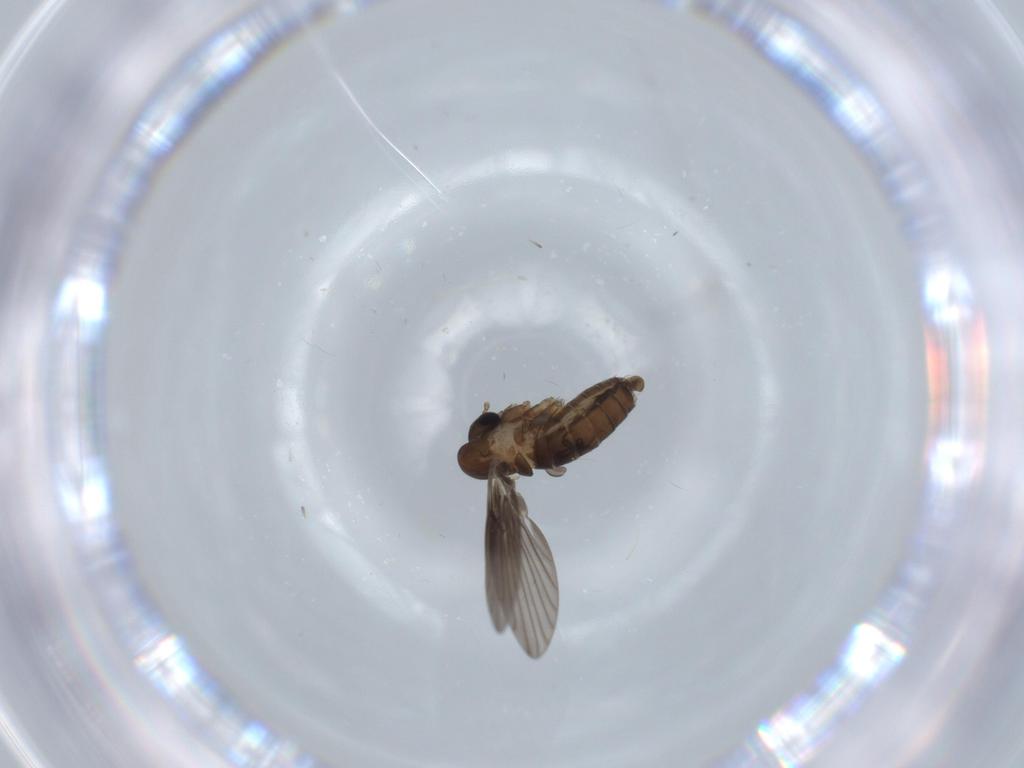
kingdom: Animalia
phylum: Arthropoda
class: Insecta
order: Diptera
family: Psychodidae
